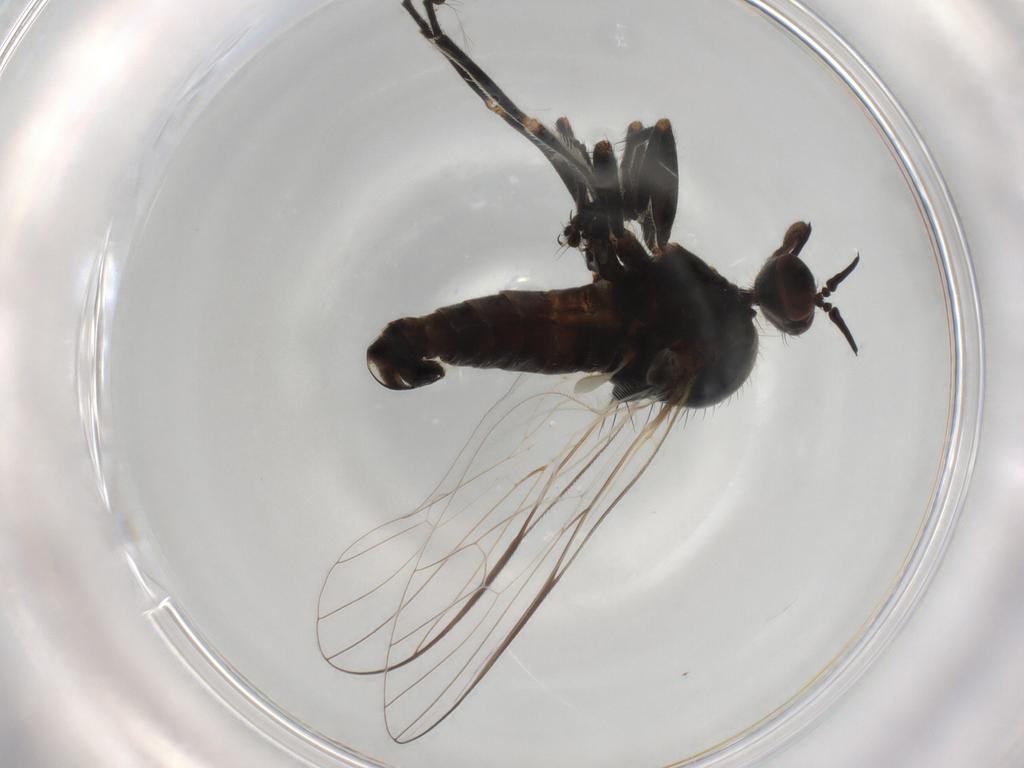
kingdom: Animalia
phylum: Arthropoda
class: Insecta
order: Diptera
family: Empididae
